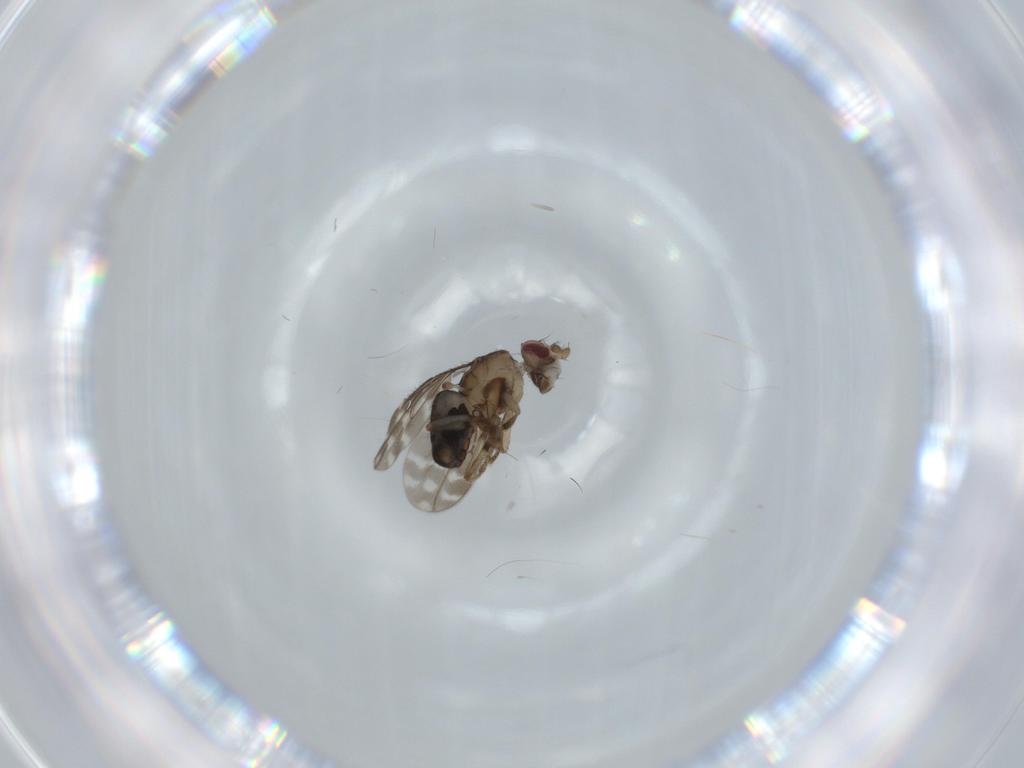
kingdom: Animalia
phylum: Arthropoda
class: Insecta
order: Diptera
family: Sphaeroceridae
